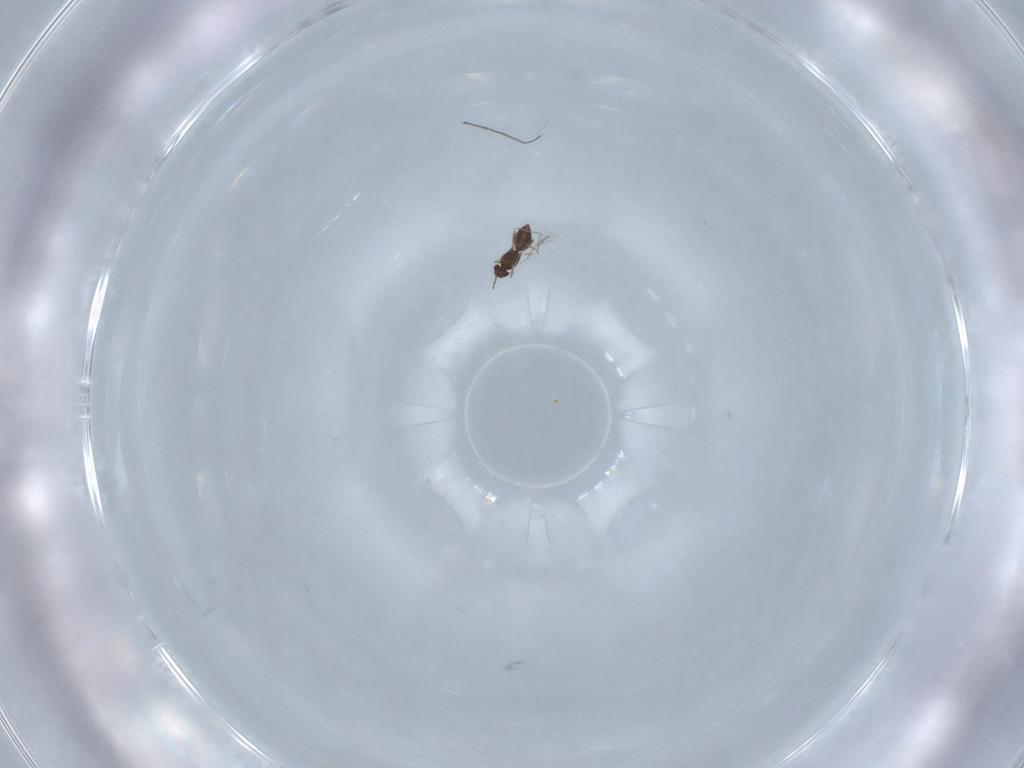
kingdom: Animalia
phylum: Arthropoda
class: Insecta
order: Hymenoptera
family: Mymaridae
